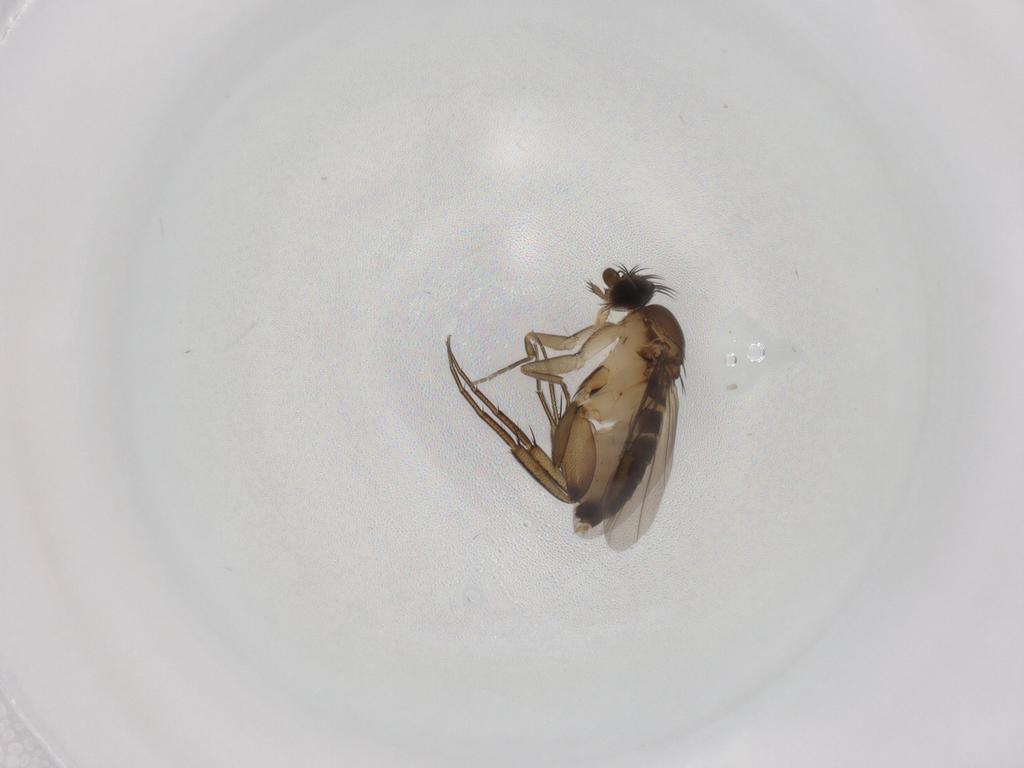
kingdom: Animalia
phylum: Arthropoda
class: Insecta
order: Diptera
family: Phoridae
